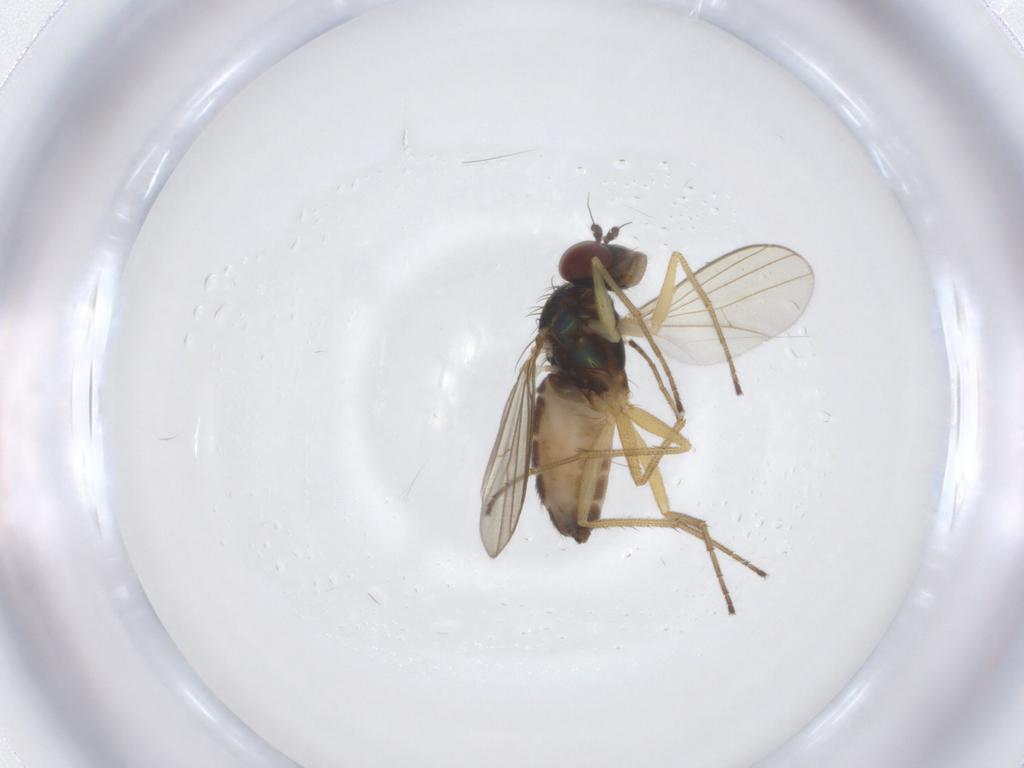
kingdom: Animalia
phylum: Arthropoda
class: Insecta
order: Diptera
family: Dolichopodidae
